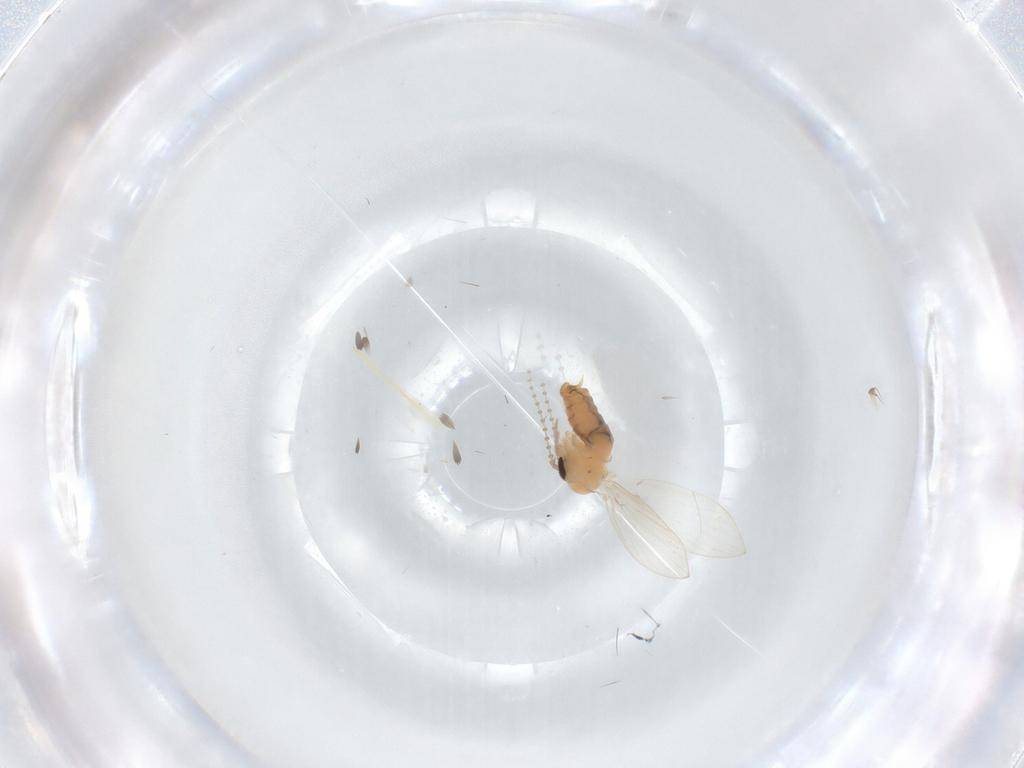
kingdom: Animalia
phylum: Arthropoda
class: Insecta
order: Diptera
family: Psychodidae
